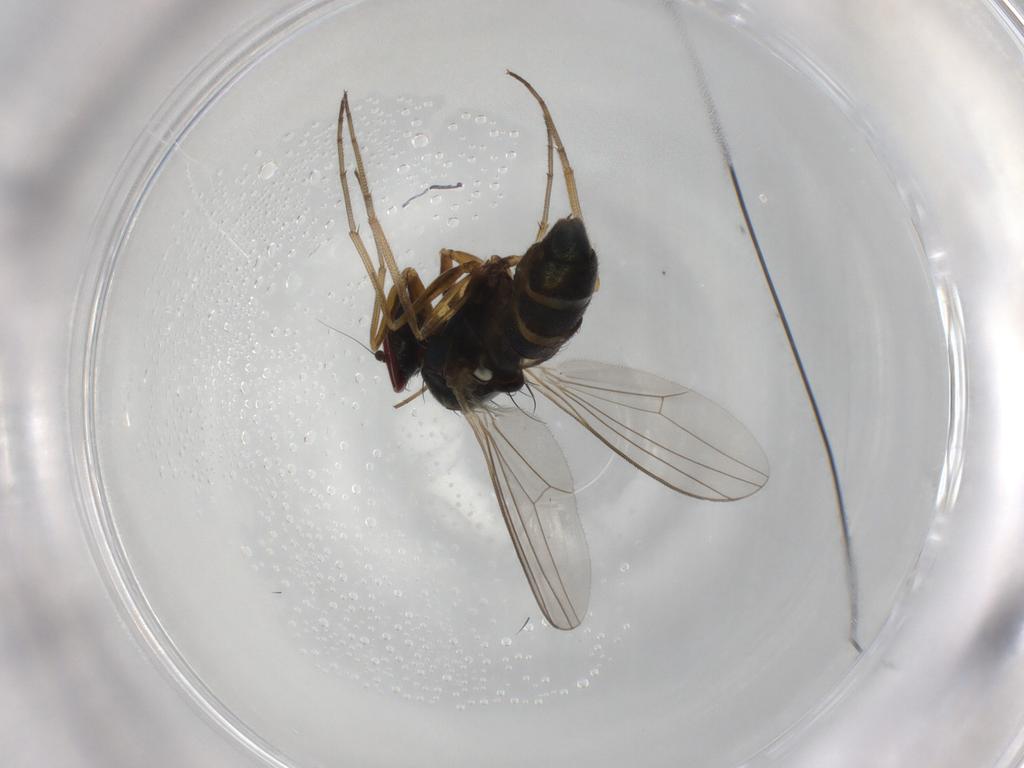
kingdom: Animalia
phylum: Arthropoda
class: Insecta
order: Diptera
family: Dolichopodidae
